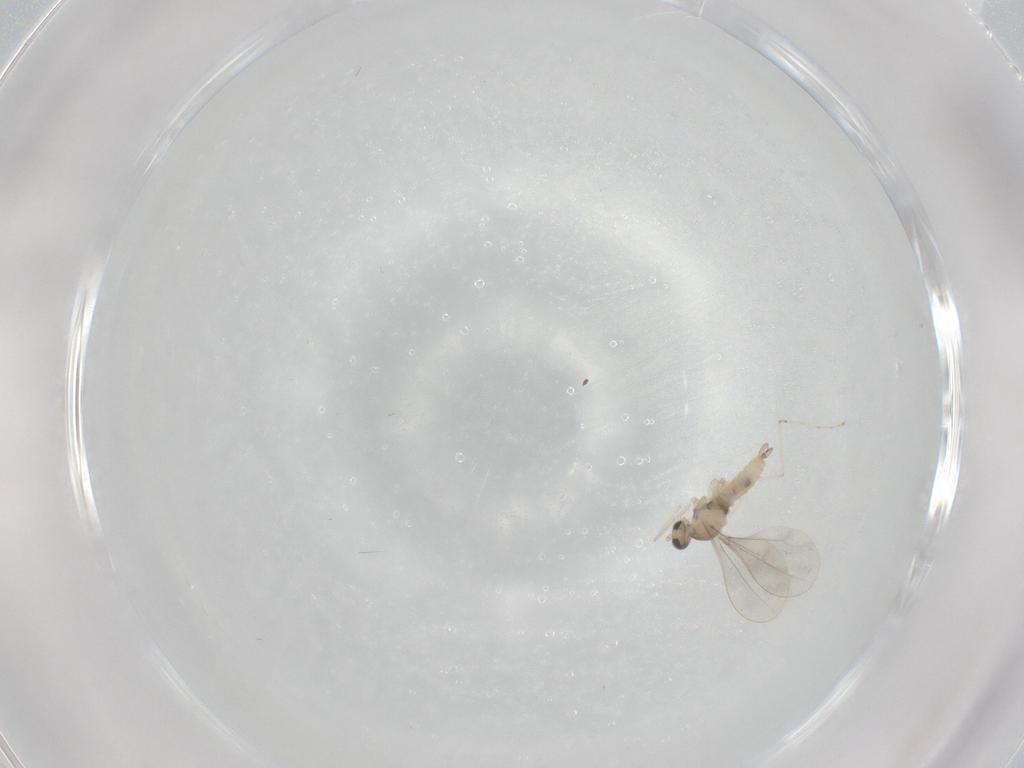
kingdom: Animalia
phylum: Arthropoda
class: Insecta
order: Diptera
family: Cecidomyiidae
